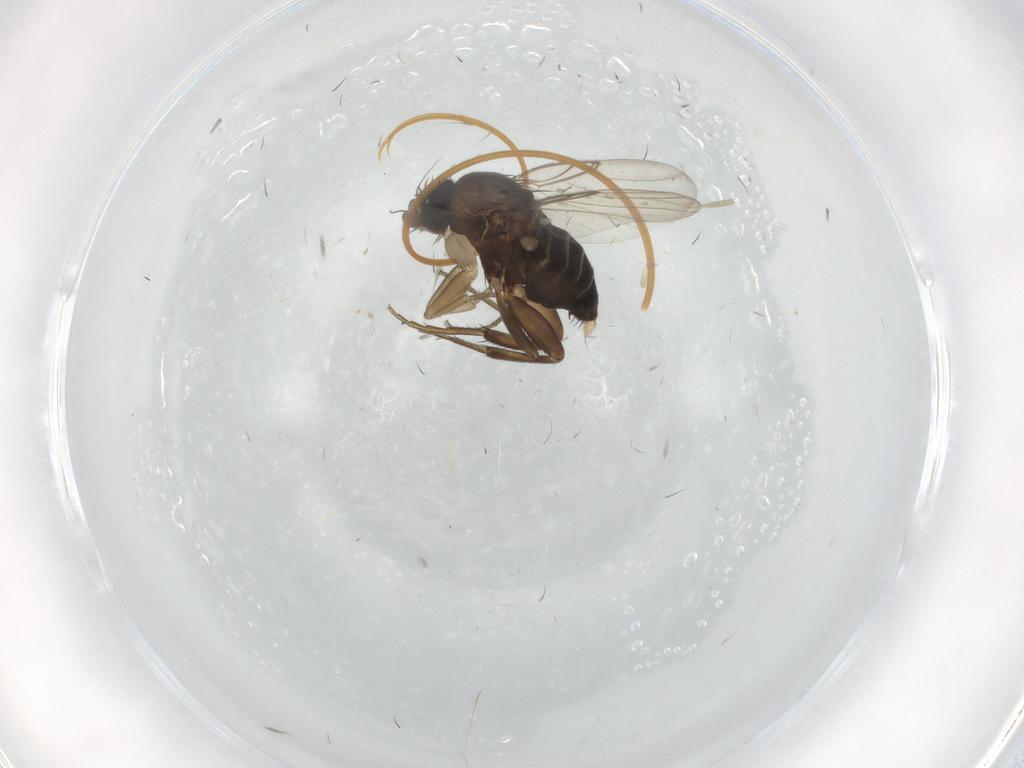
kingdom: Animalia
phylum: Arthropoda
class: Insecta
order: Diptera
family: Phoridae
